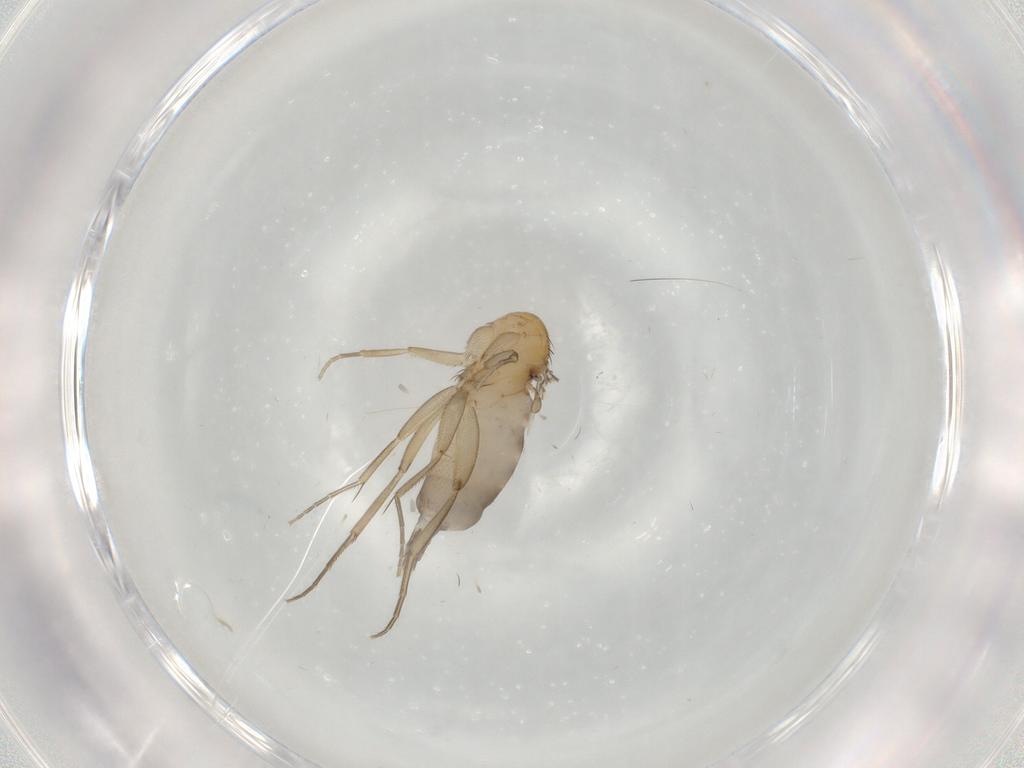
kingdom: Animalia
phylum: Arthropoda
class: Insecta
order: Diptera
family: Phoridae
